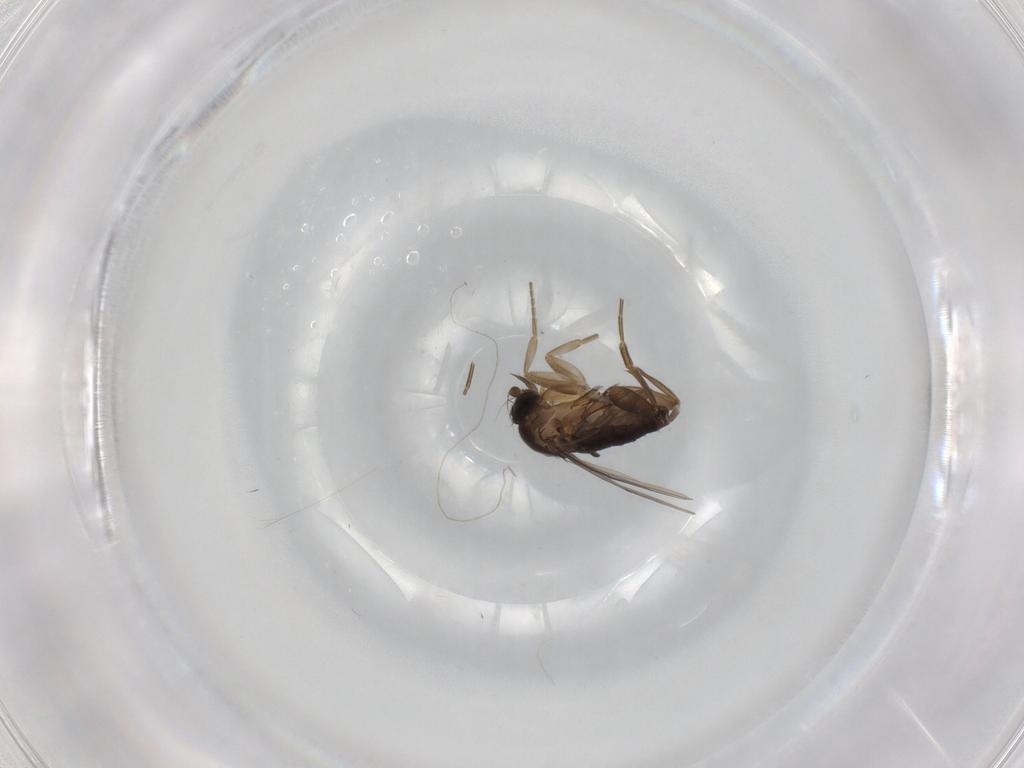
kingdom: Animalia
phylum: Arthropoda
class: Insecta
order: Diptera
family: Phoridae
